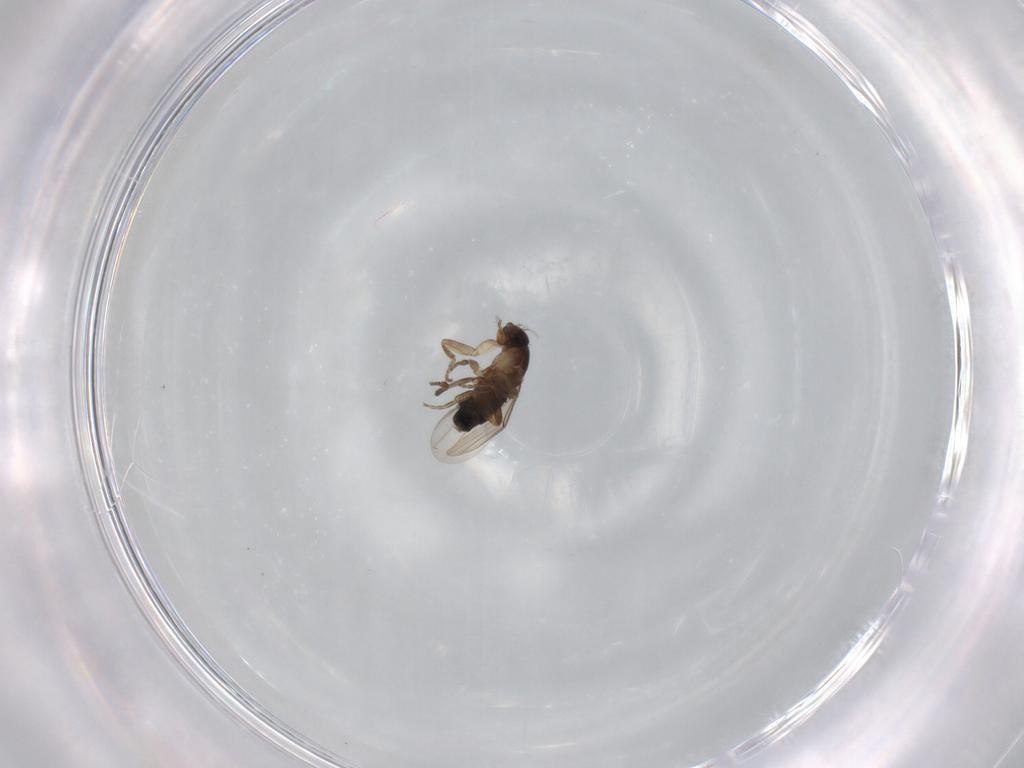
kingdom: Animalia
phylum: Arthropoda
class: Insecta
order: Diptera
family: Phoridae
